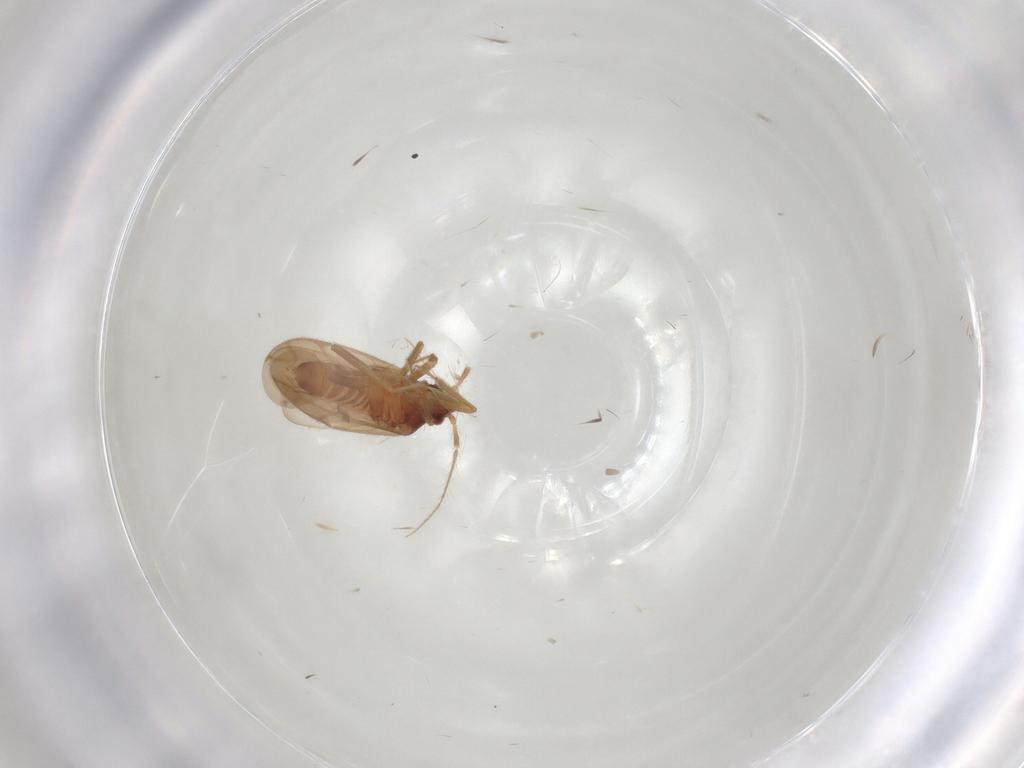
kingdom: Animalia
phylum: Arthropoda
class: Insecta
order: Hemiptera
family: Ceratocombidae
